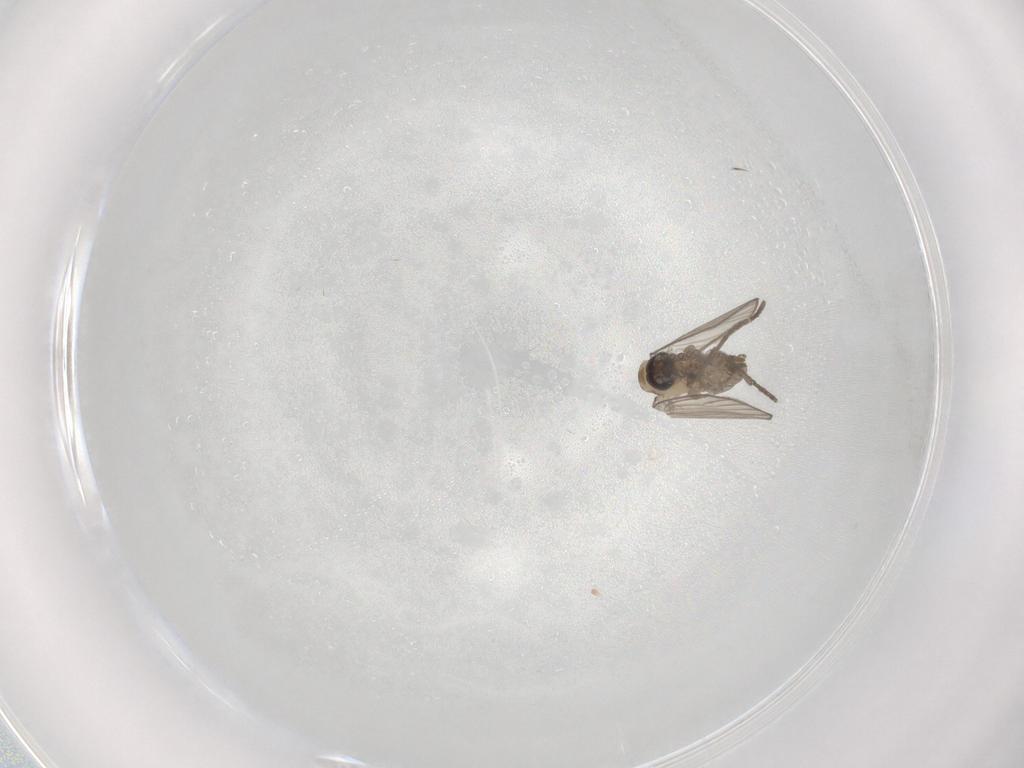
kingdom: Animalia
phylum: Arthropoda
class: Insecta
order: Diptera
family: Psychodidae
